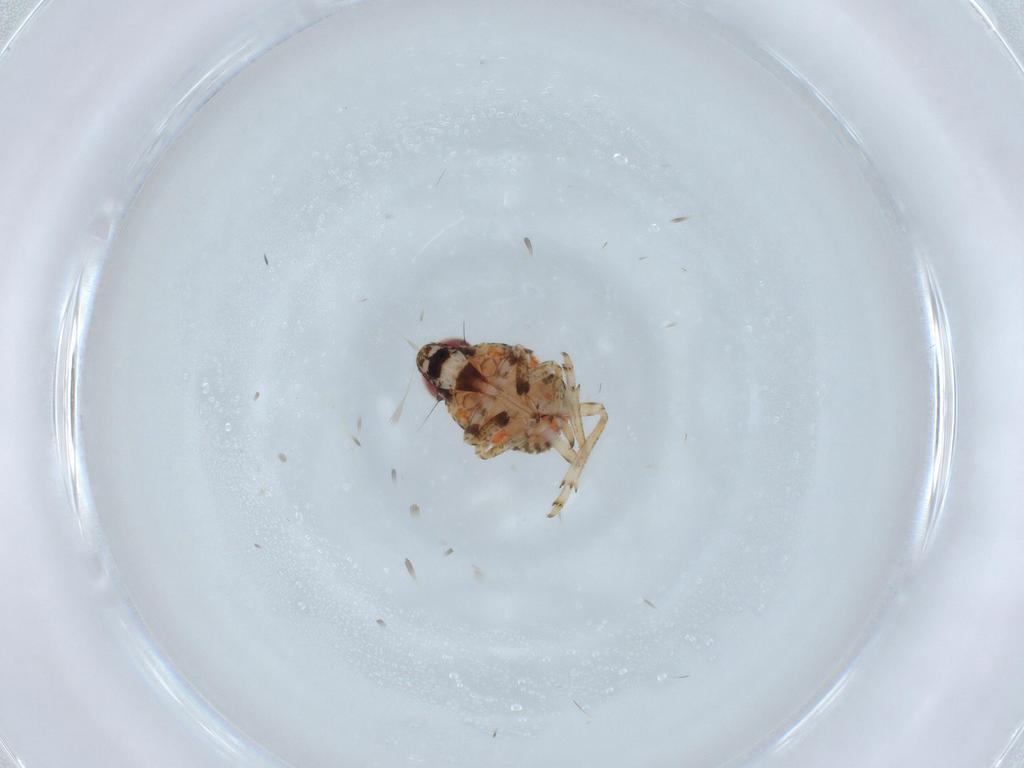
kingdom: Animalia
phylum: Arthropoda
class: Insecta
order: Hemiptera
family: Issidae
